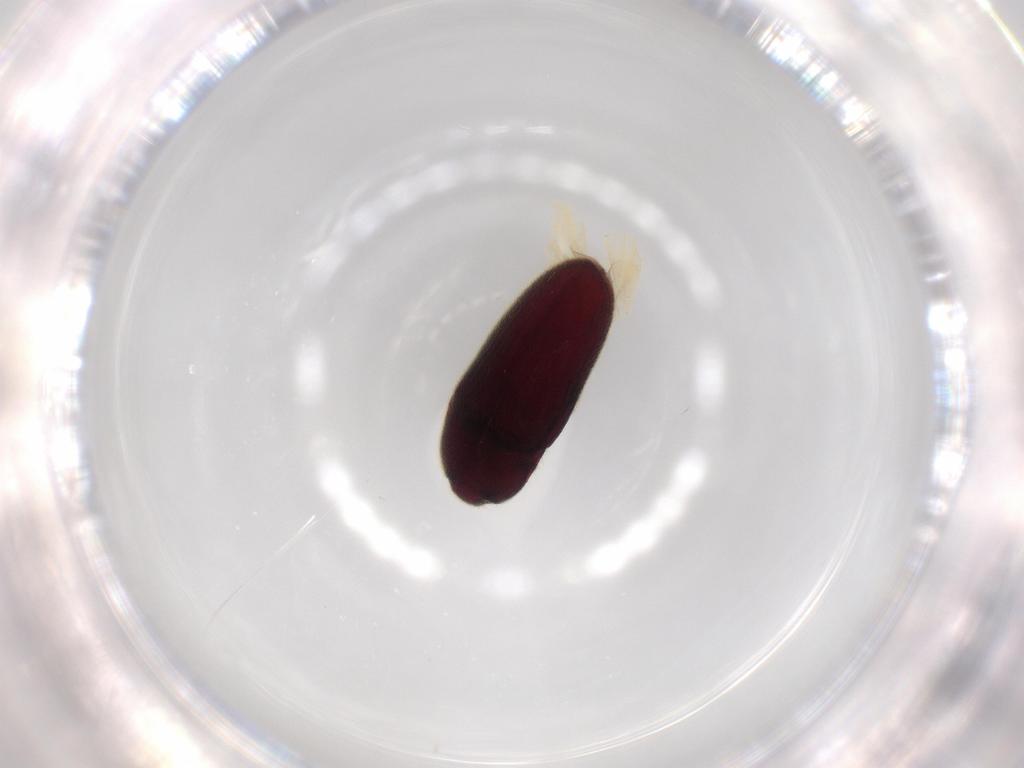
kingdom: Animalia
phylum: Arthropoda
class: Insecta
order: Coleoptera
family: Throscidae
